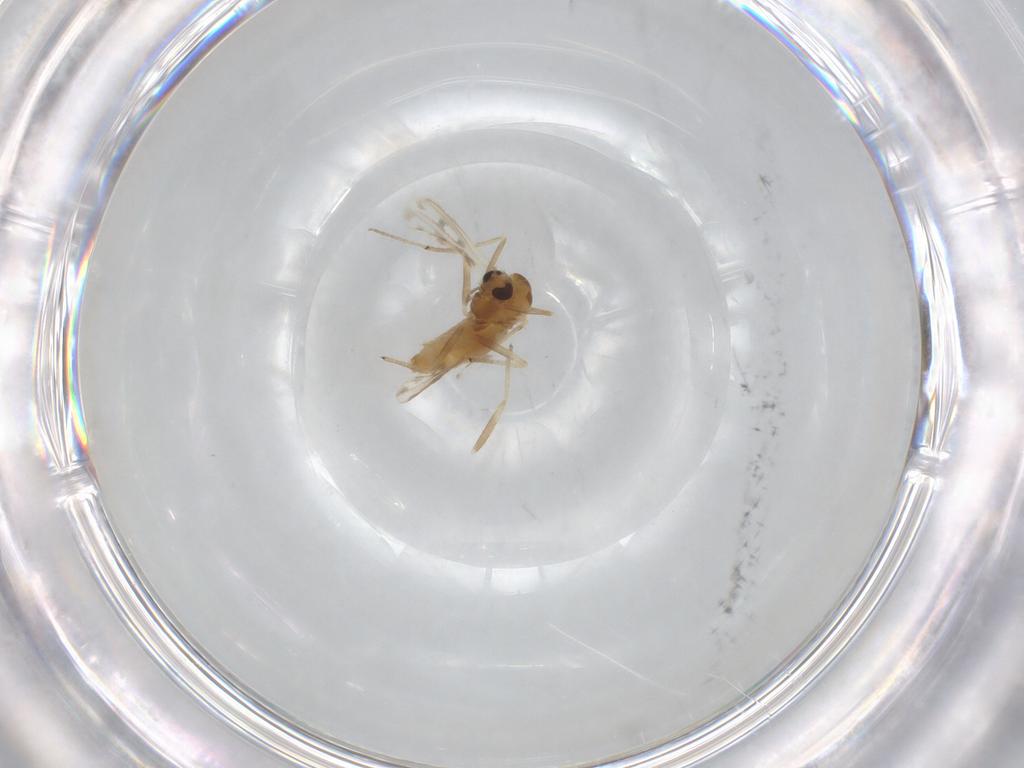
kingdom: Animalia
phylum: Arthropoda
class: Insecta
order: Diptera
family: Chironomidae
